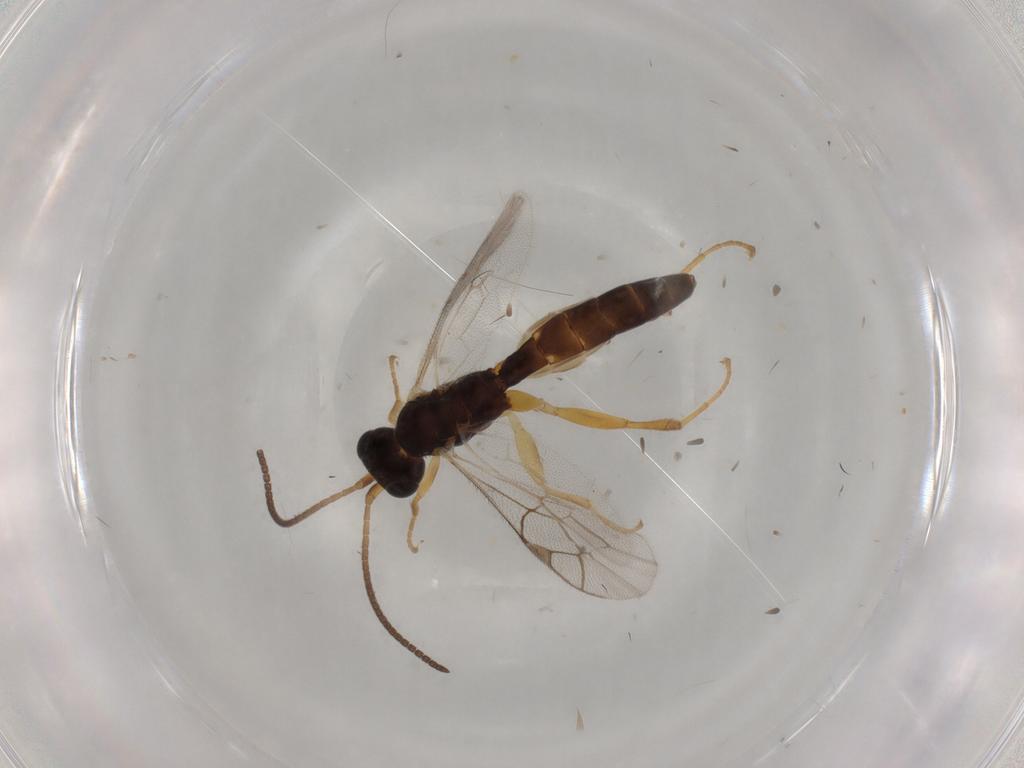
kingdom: Animalia
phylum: Arthropoda
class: Insecta
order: Hymenoptera
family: Ichneumonidae
